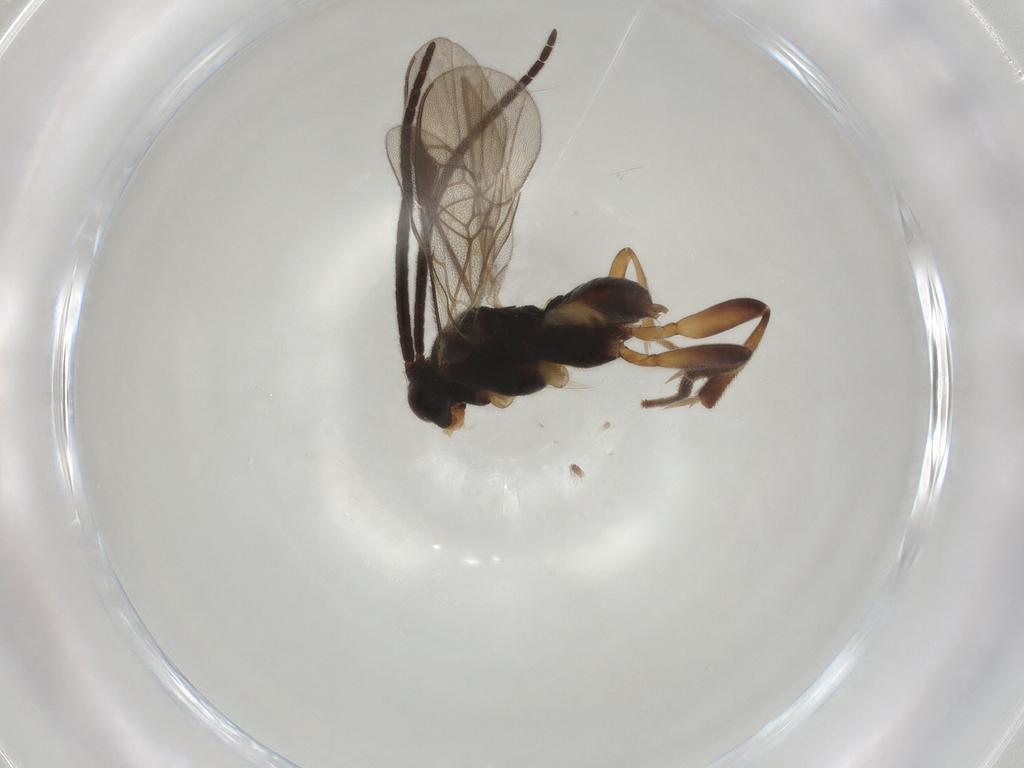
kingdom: Animalia
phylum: Arthropoda
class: Insecta
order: Hymenoptera
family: Braconidae
